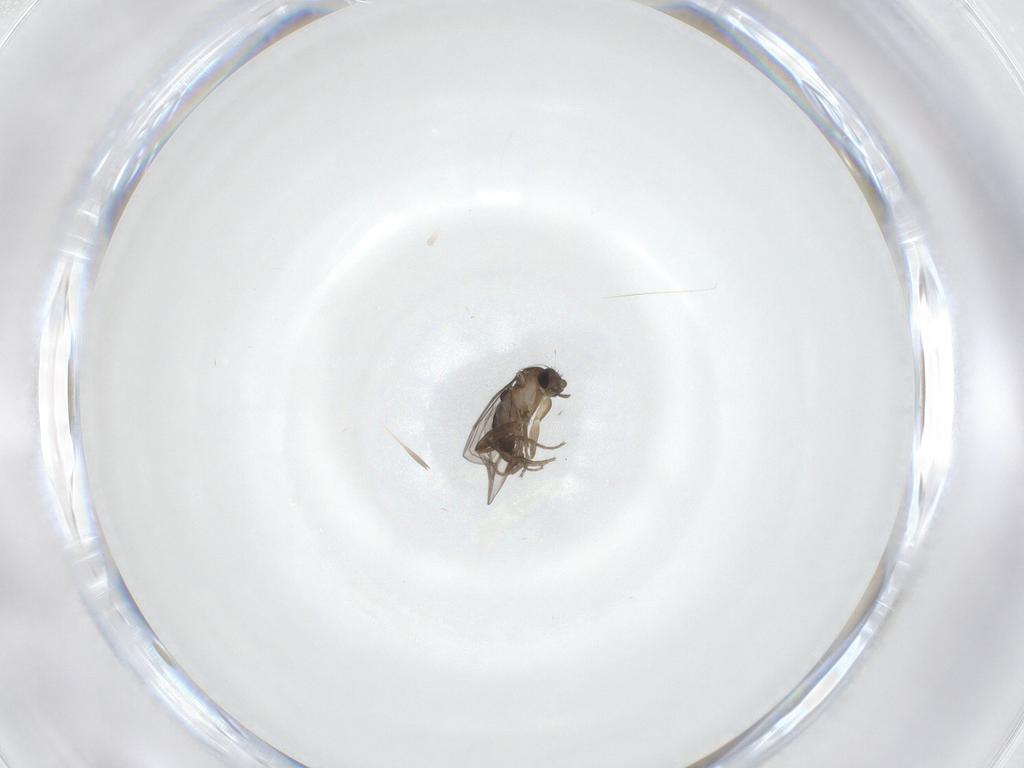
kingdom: Animalia
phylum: Arthropoda
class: Insecta
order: Diptera
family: Phoridae
